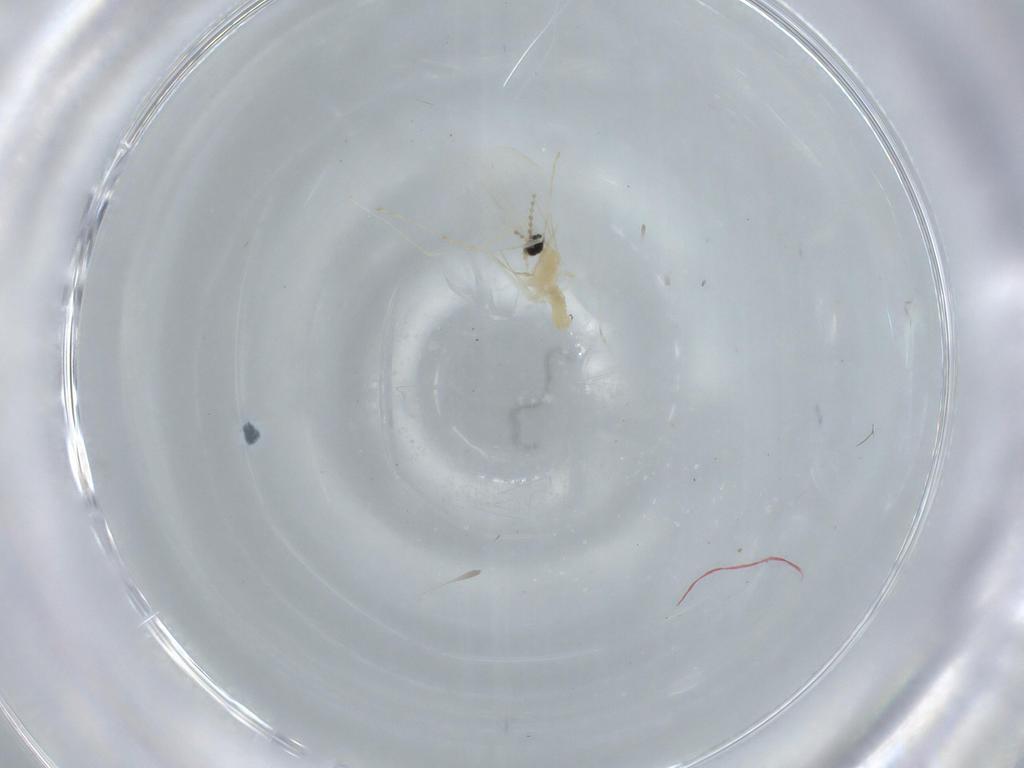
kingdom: Animalia
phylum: Arthropoda
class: Insecta
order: Diptera
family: Cecidomyiidae
